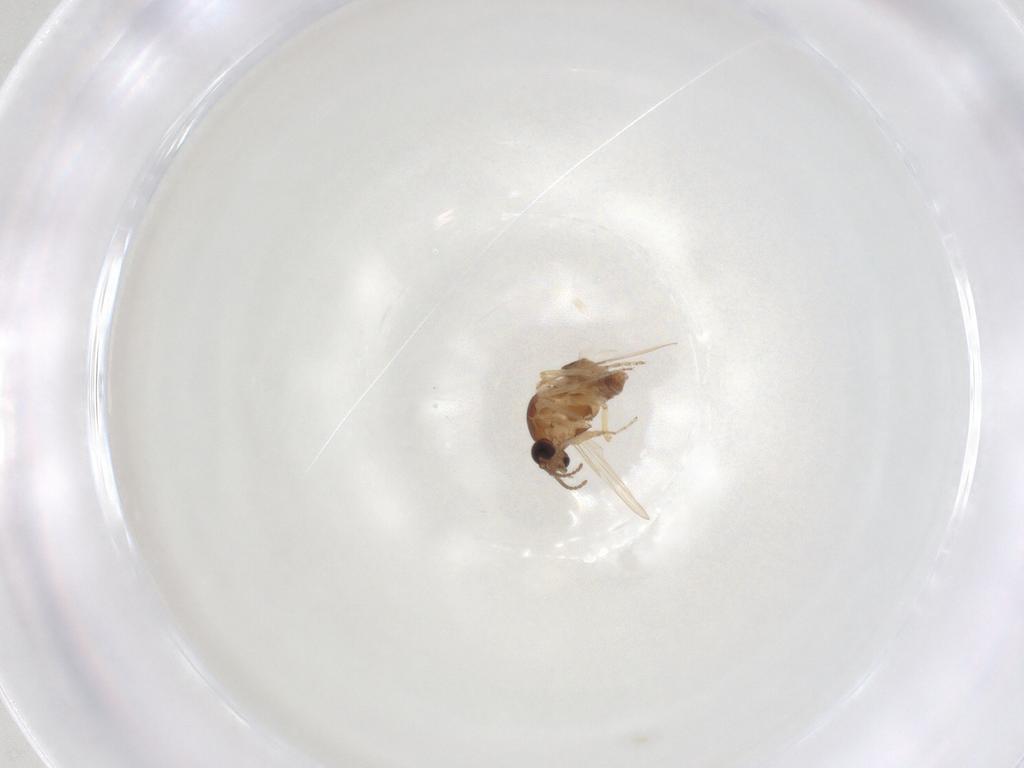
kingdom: Animalia
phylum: Arthropoda
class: Insecta
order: Diptera
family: Ceratopogonidae
